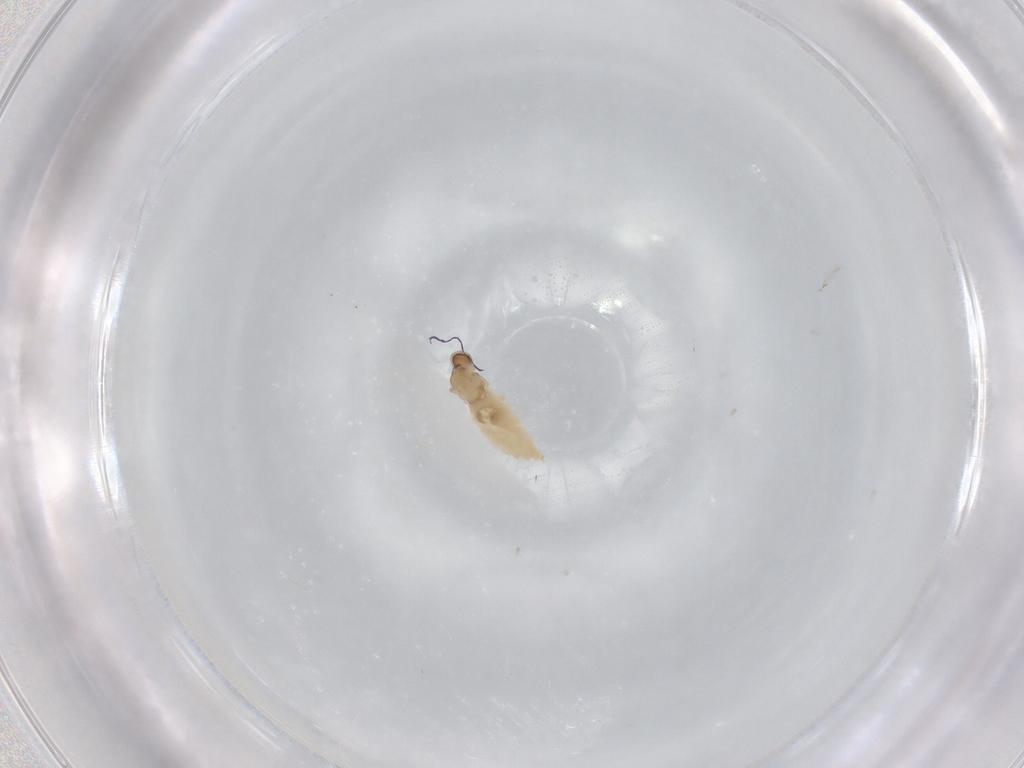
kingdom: Animalia
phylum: Arthropoda
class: Insecta
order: Diptera
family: Cecidomyiidae
